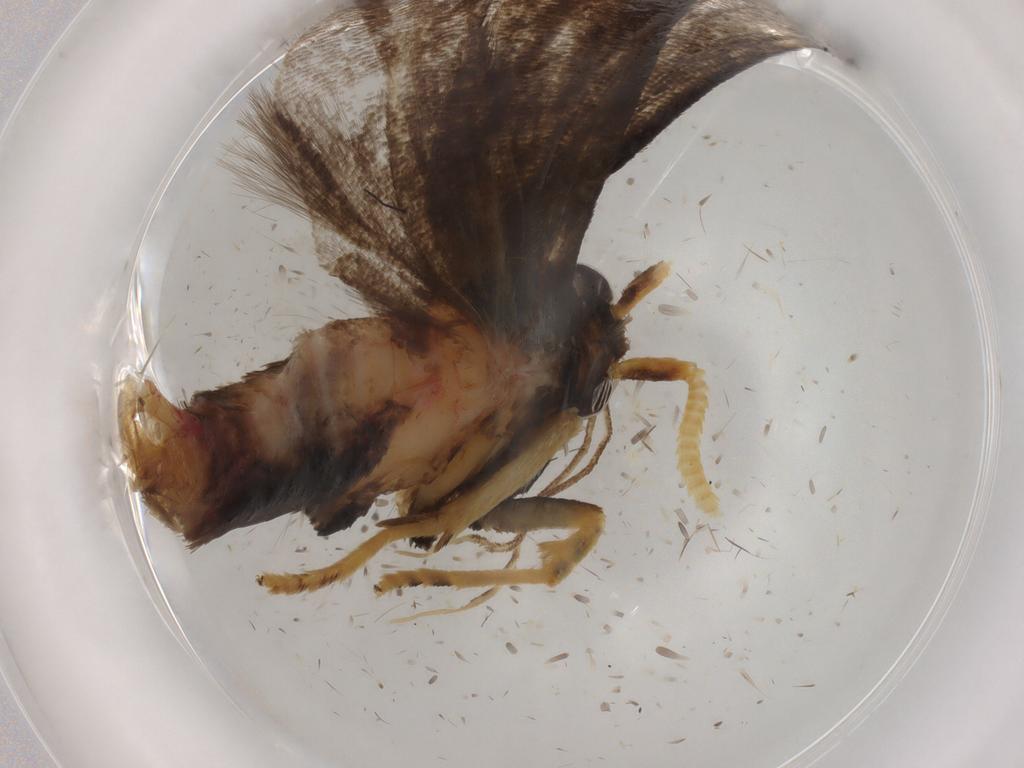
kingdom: Animalia
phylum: Arthropoda
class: Insecta
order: Lepidoptera
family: Lecithoceridae
